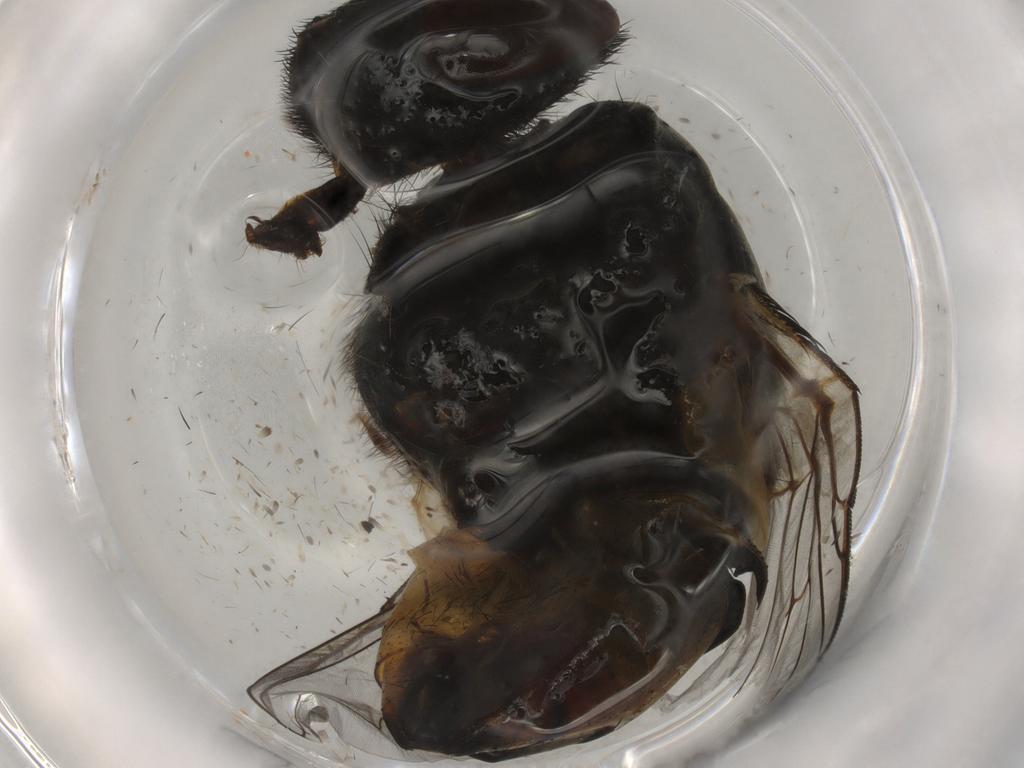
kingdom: Animalia
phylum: Arthropoda
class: Insecta
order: Diptera
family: Muscidae
